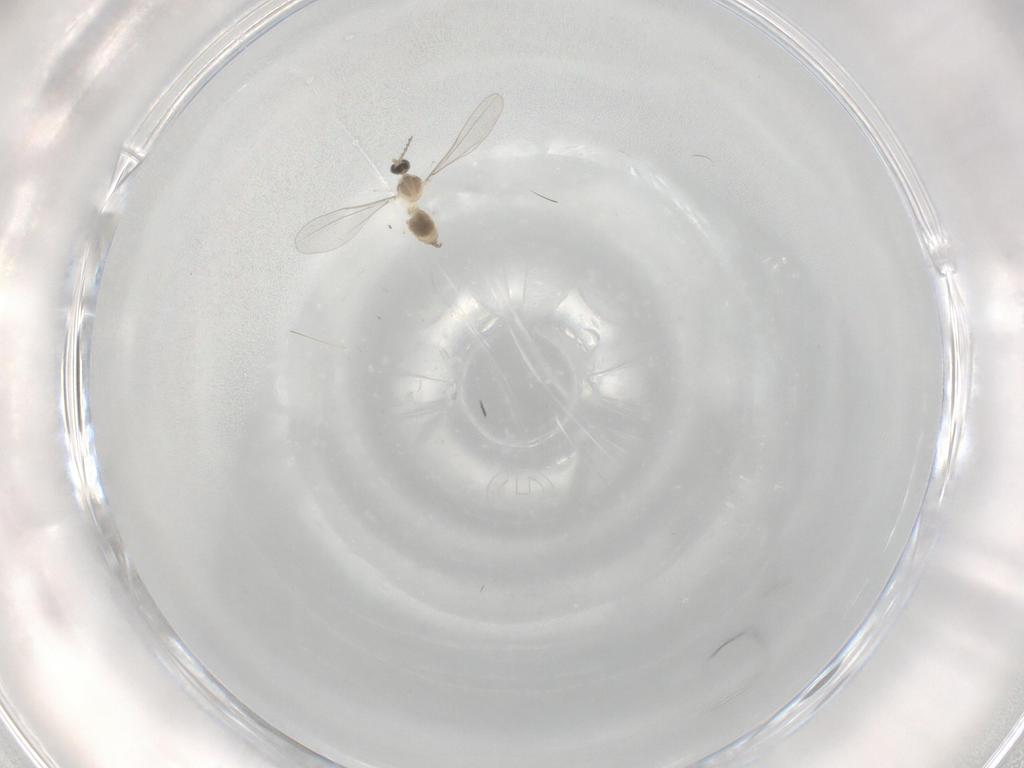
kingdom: Animalia
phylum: Arthropoda
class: Insecta
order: Diptera
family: Cecidomyiidae
